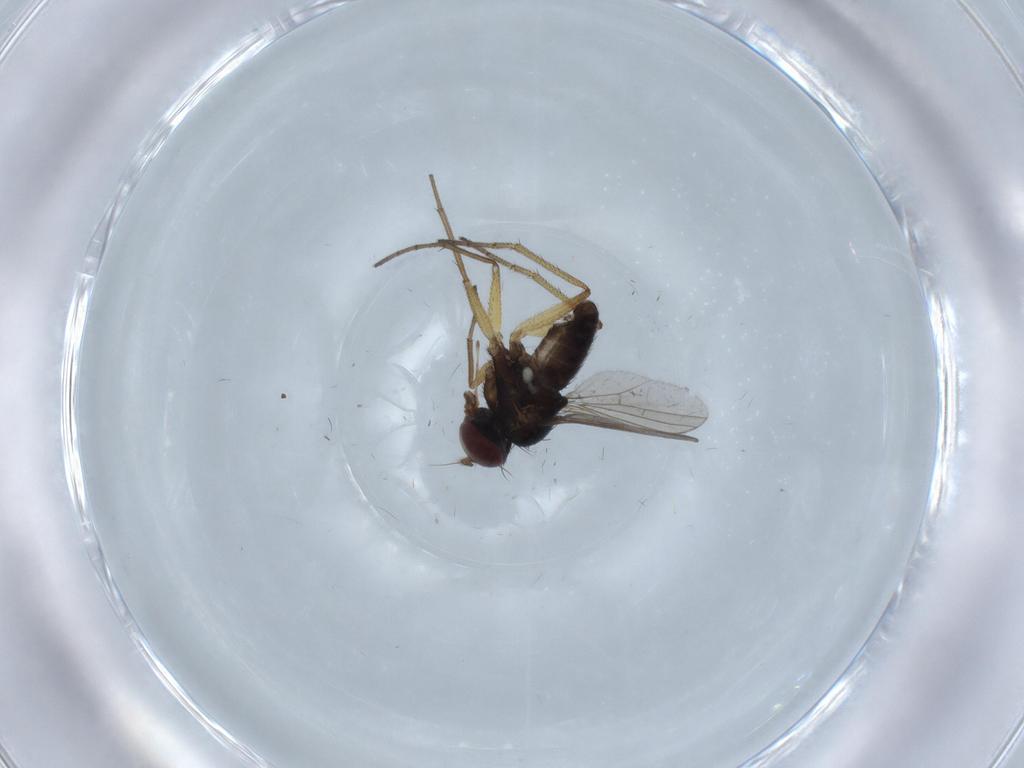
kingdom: Animalia
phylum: Arthropoda
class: Insecta
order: Diptera
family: Dolichopodidae
